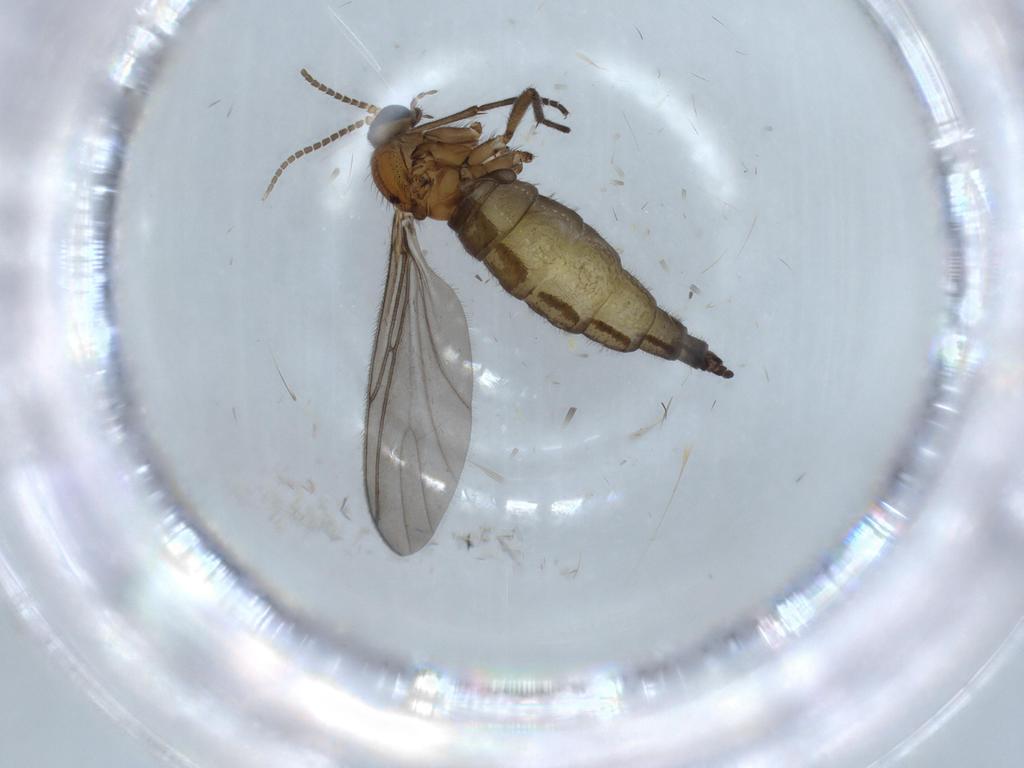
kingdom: Animalia
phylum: Arthropoda
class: Insecta
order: Diptera
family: Sciaridae
